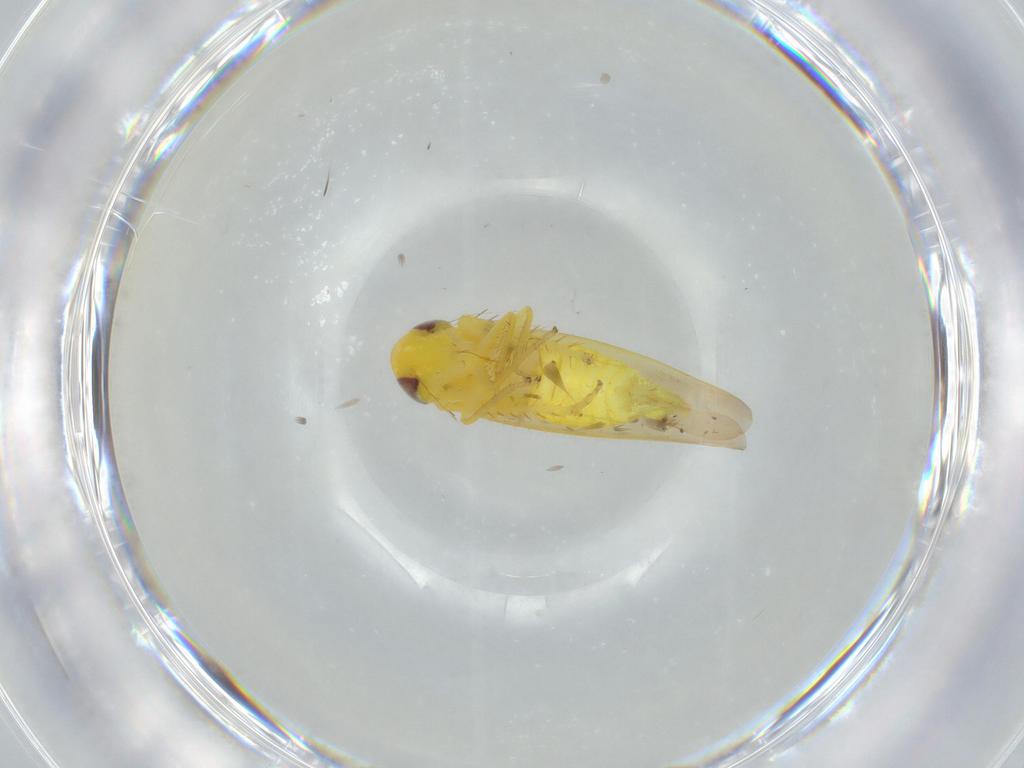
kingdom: Animalia
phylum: Arthropoda
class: Insecta
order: Hemiptera
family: Cicadellidae
